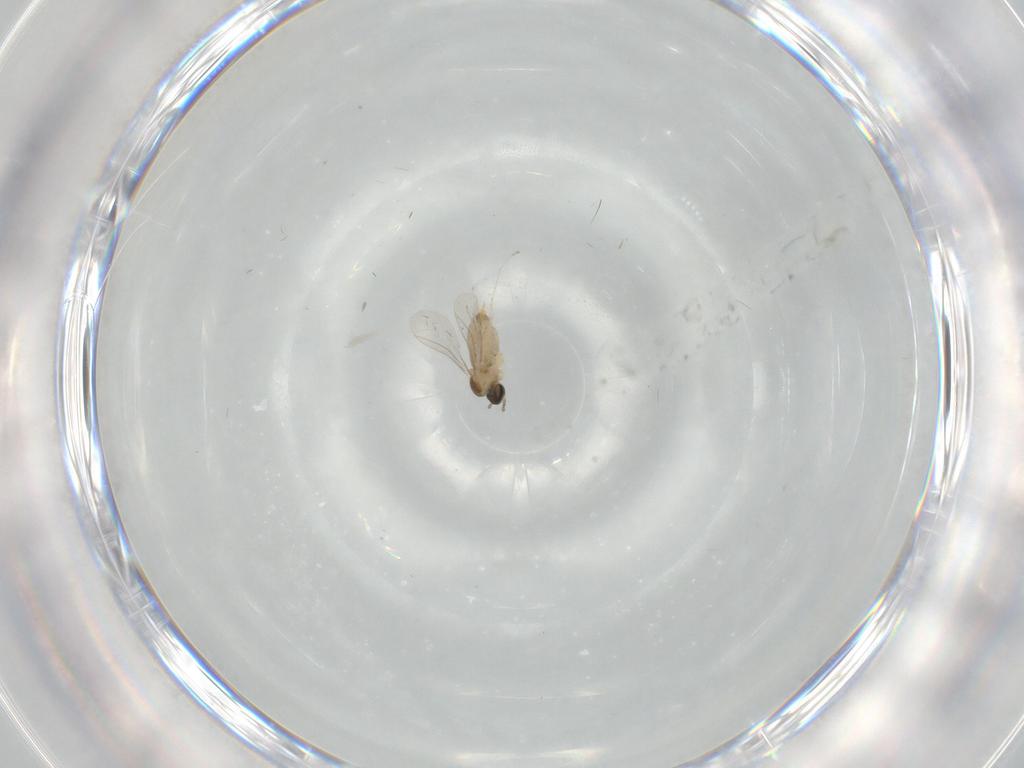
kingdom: Animalia
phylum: Arthropoda
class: Insecta
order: Diptera
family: Cecidomyiidae
